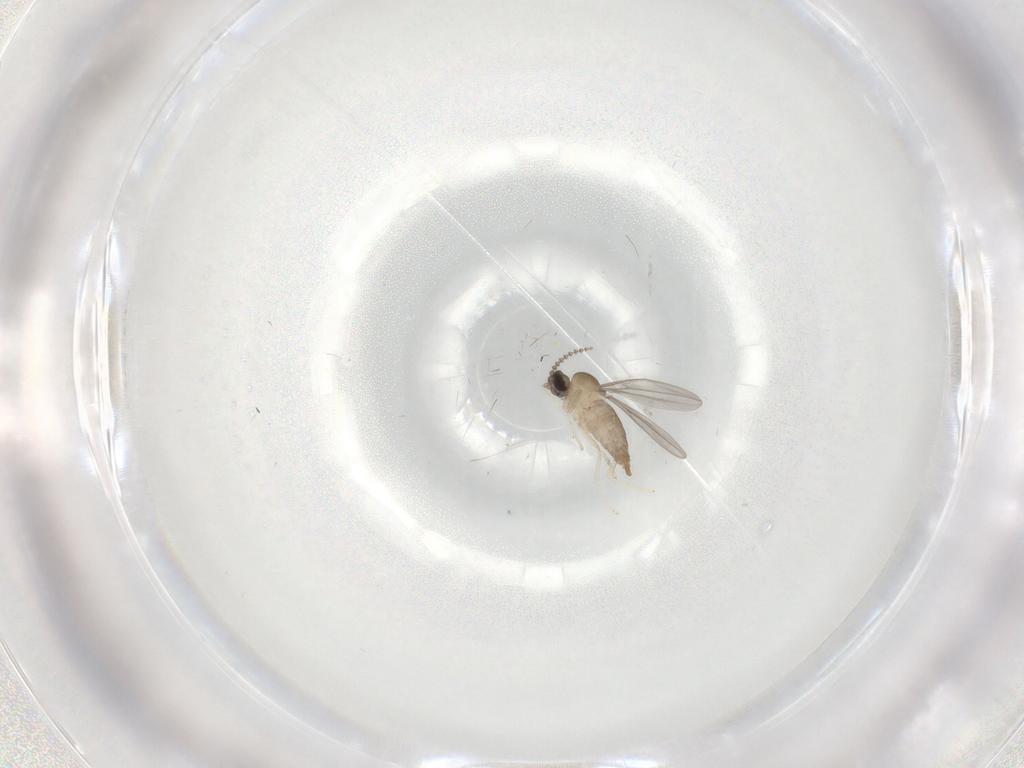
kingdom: Animalia
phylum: Arthropoda
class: Insecta
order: Diptera
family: Cecidomyiidae
